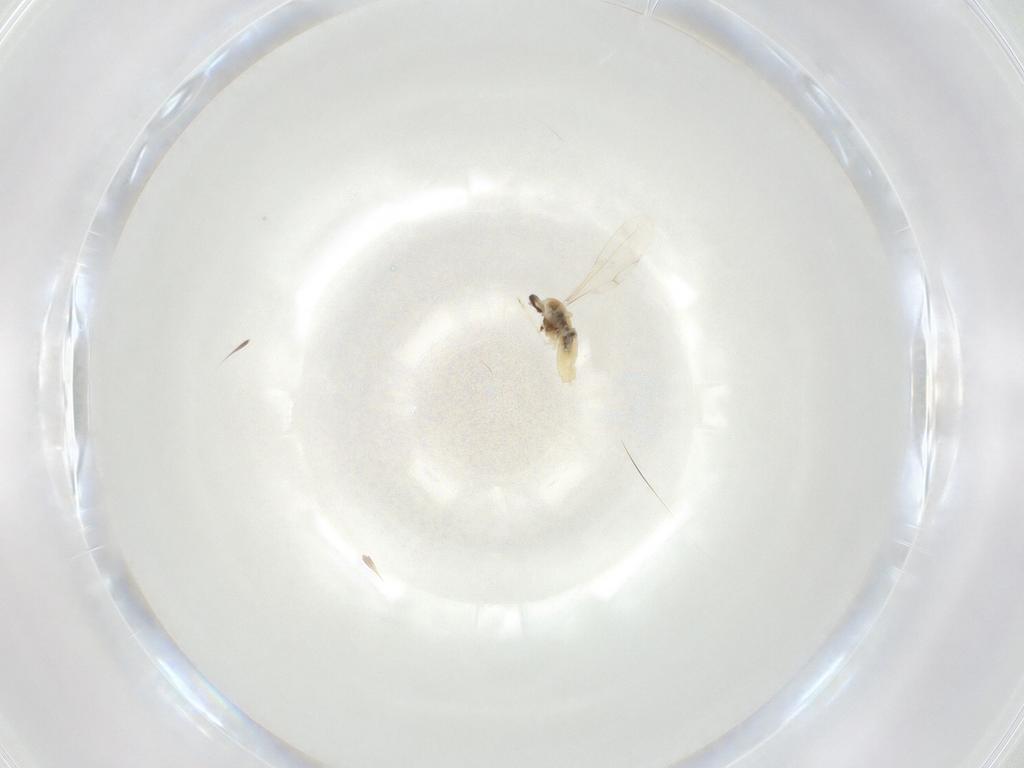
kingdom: Animalia
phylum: Arthropoda
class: Insecta
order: Diptera
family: Cecidomyiidae
